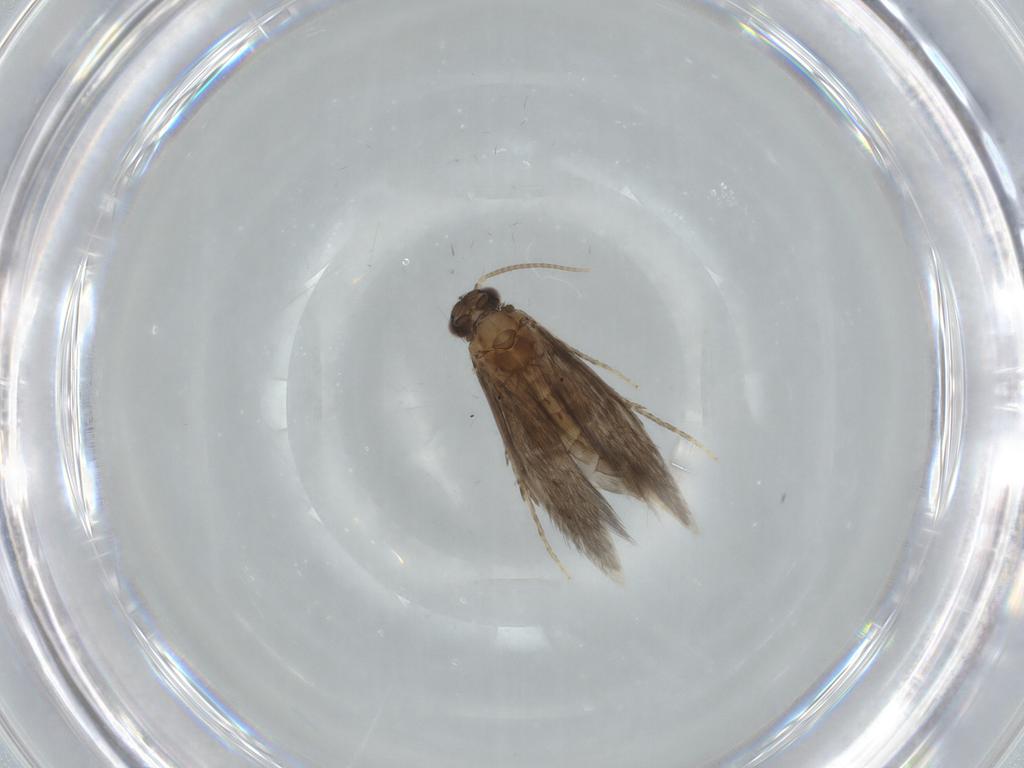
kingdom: Animalia
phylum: Arthropoda
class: Insecta
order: Trichoptera
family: Hydroptilidae
